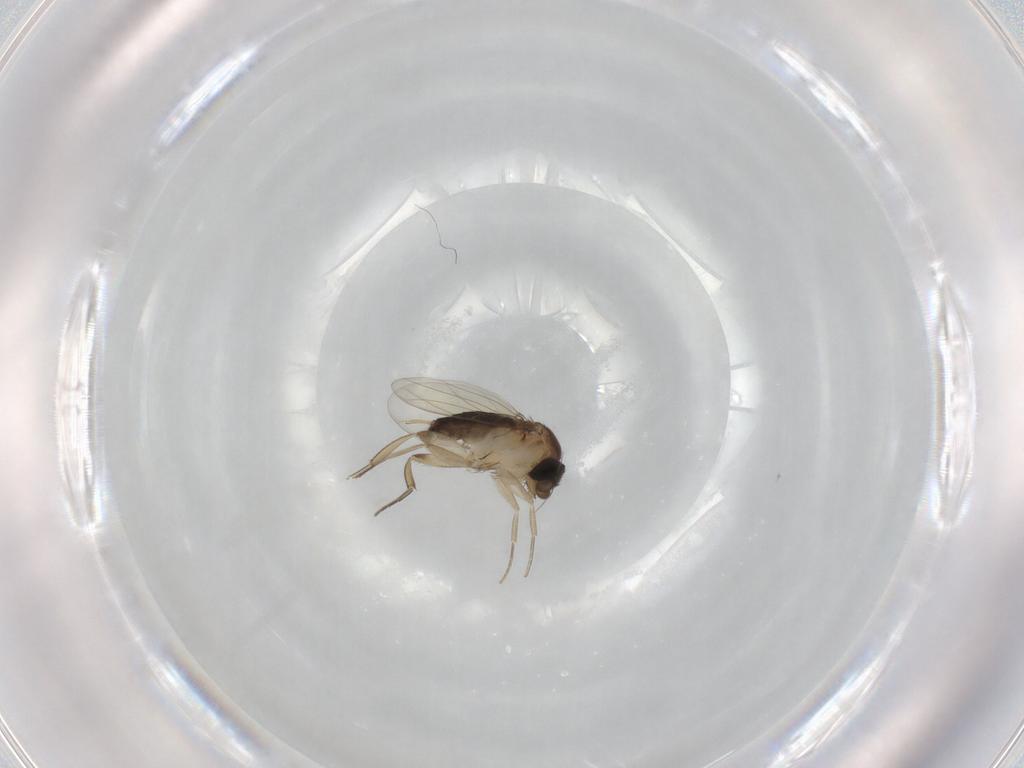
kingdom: Animalia
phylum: Arthropoda
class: Insecta
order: Diptera
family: Phoridae
